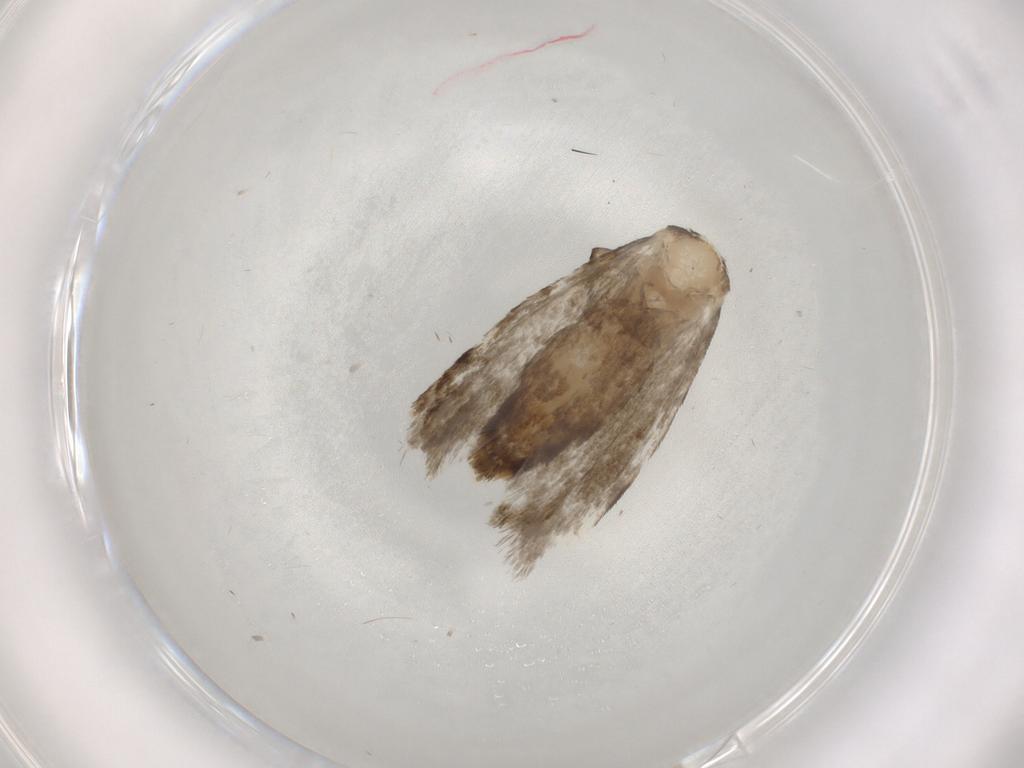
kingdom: Animalia
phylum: Arthropoda
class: Insecta
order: Lepidoptera
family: Tineidae
